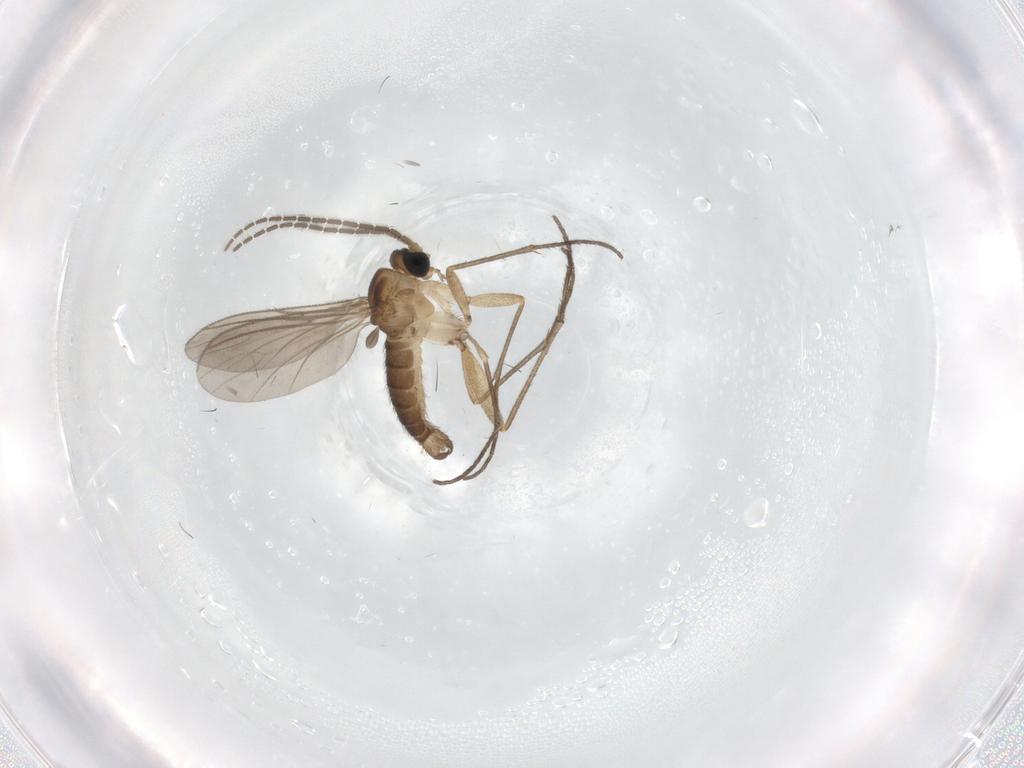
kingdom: Animalia
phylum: Arthropoda
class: Insecta
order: Diptera
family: Sciaridae
